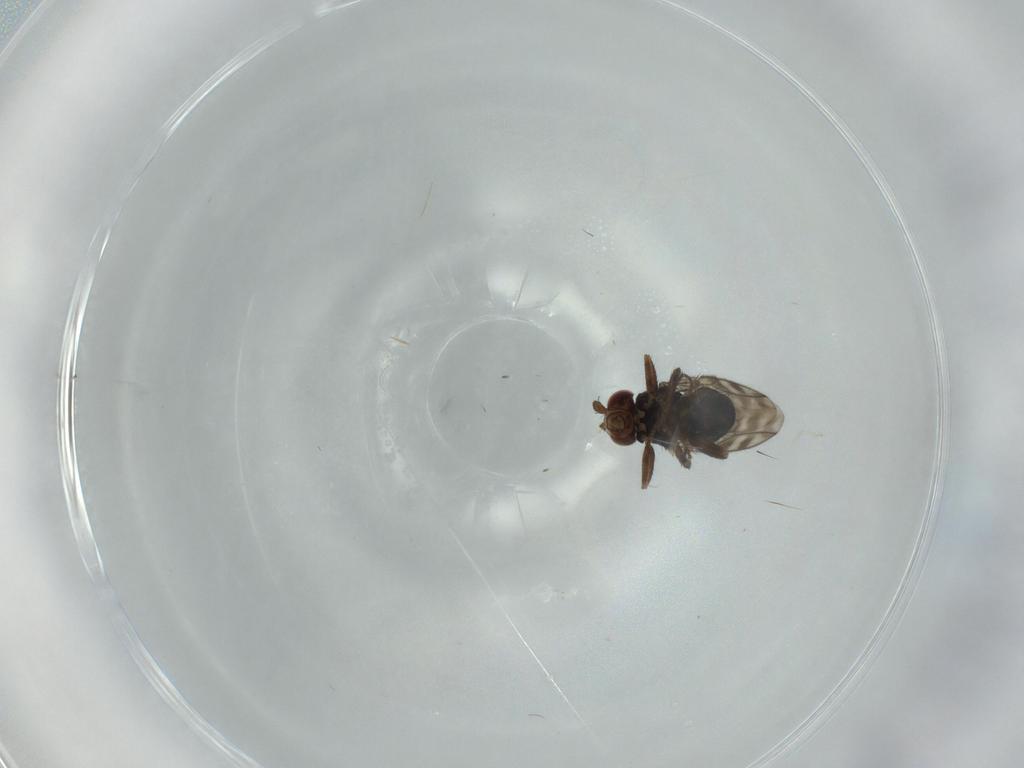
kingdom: Animalia
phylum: Arthropoda
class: Insecta
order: Diptera
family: Sphaeroceridae
